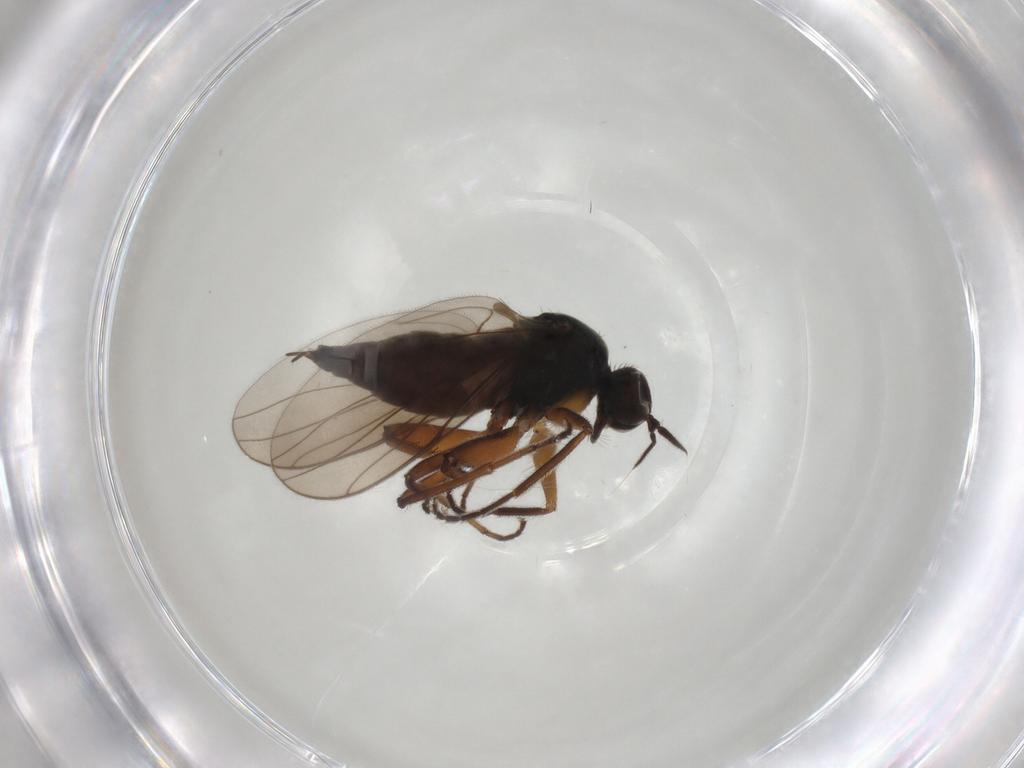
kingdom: Animalia
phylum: Arthropoda
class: Insecta
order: Diptera
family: Hybotidae
